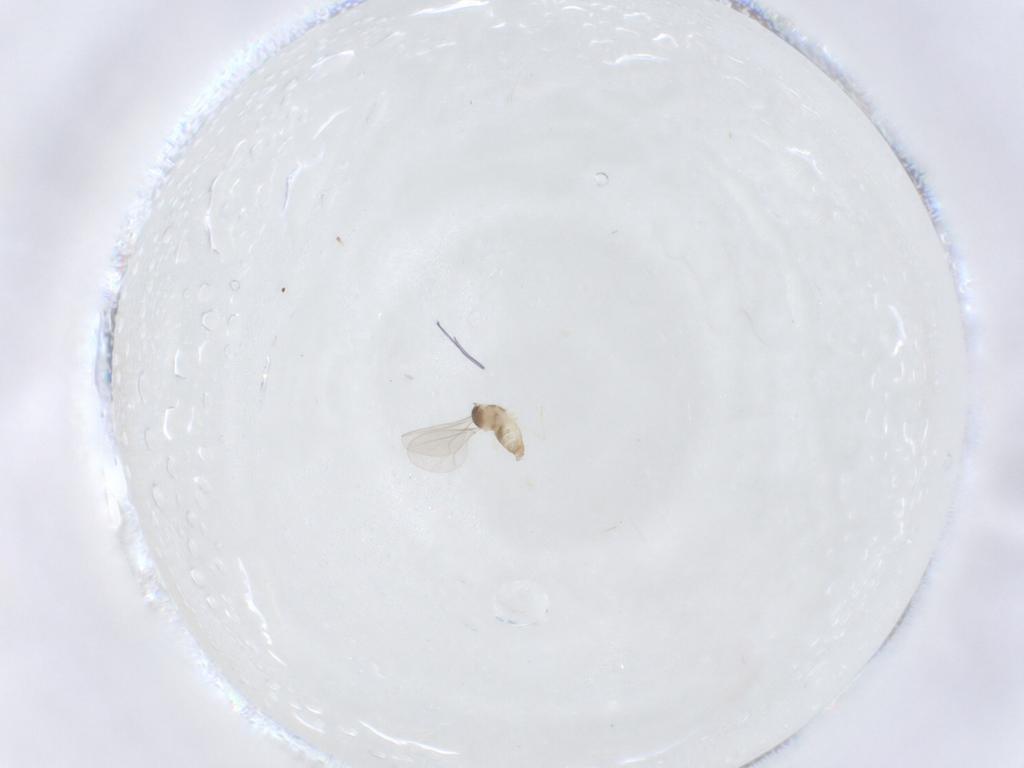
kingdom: Animalia
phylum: Arthropoda
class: Insecta
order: Diptera
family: Cecidomyiidae
